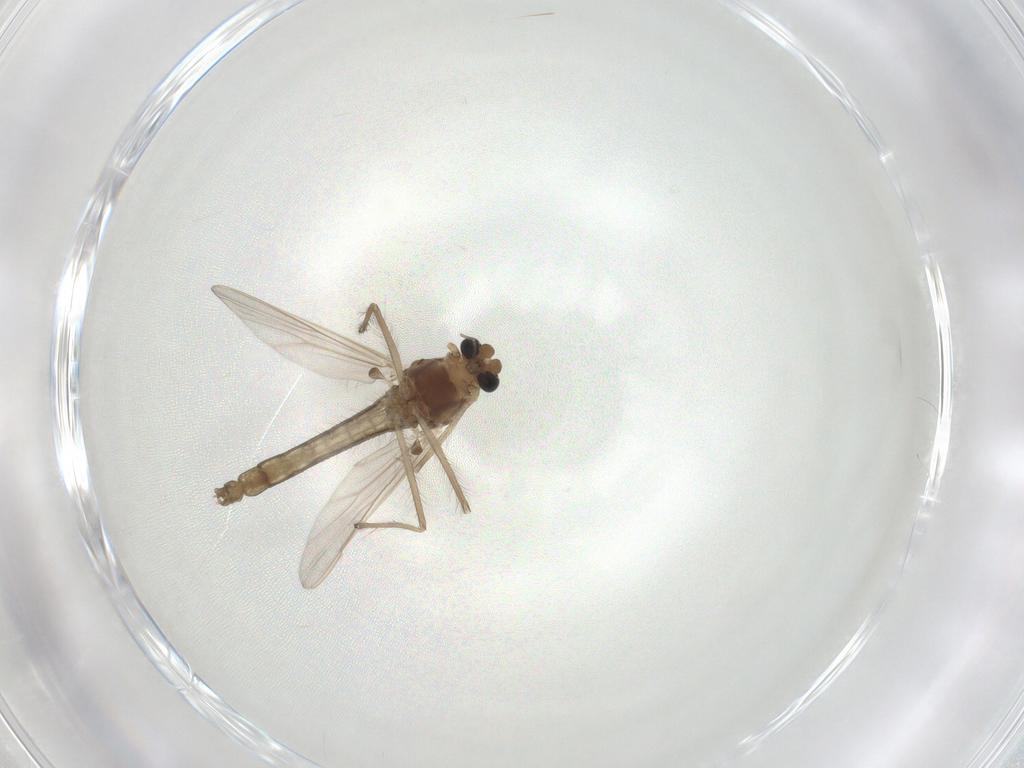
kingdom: Animalia
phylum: Arthropoda
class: Insecta
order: Diptera
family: Chironomidae
